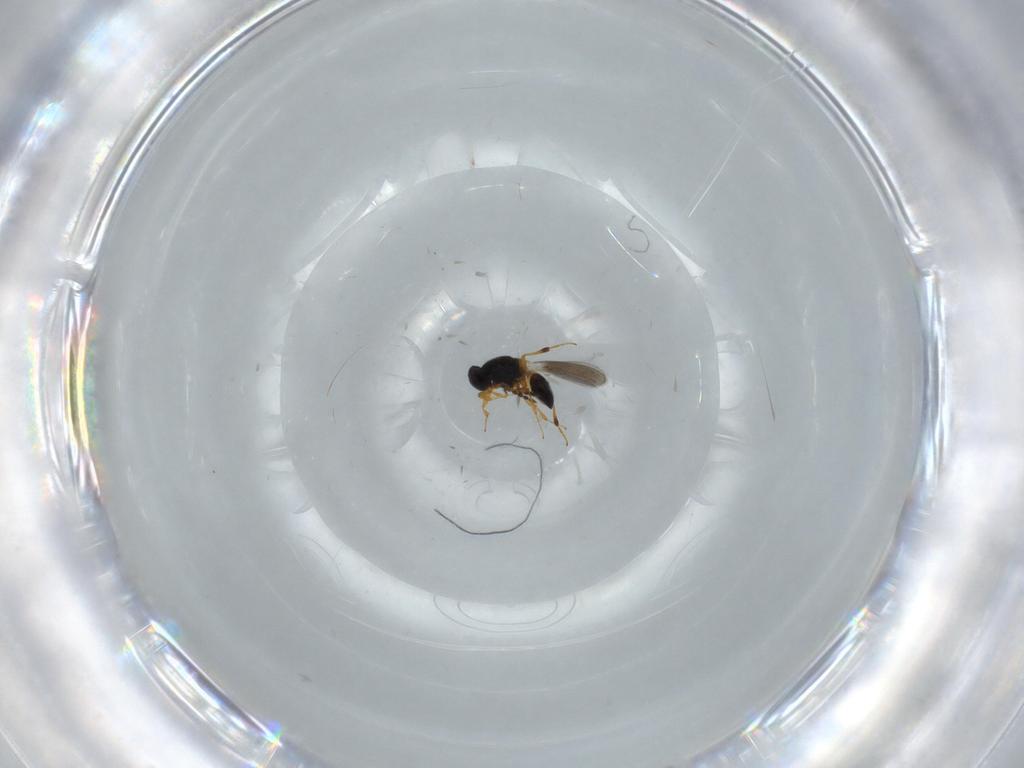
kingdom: Animalia
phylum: Arthropoda
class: Insecta
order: Hymenoptera
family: Platygastridae
